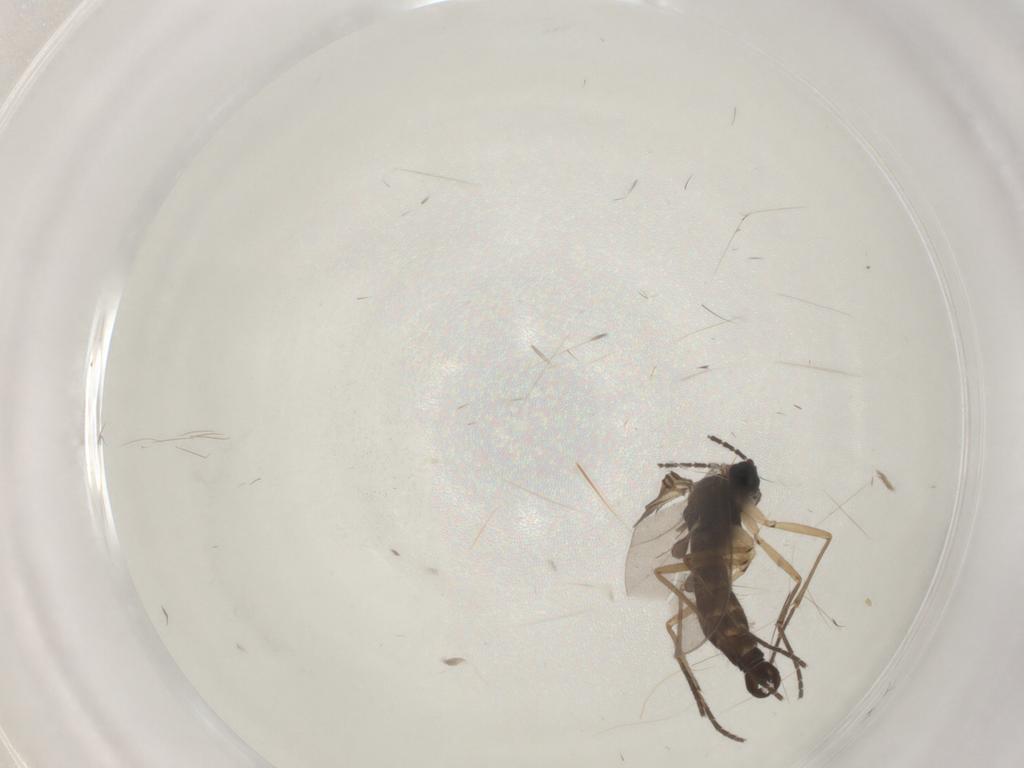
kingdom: Animalia
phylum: Arthropoda
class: Insecta
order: Diptera
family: Sciaridae
